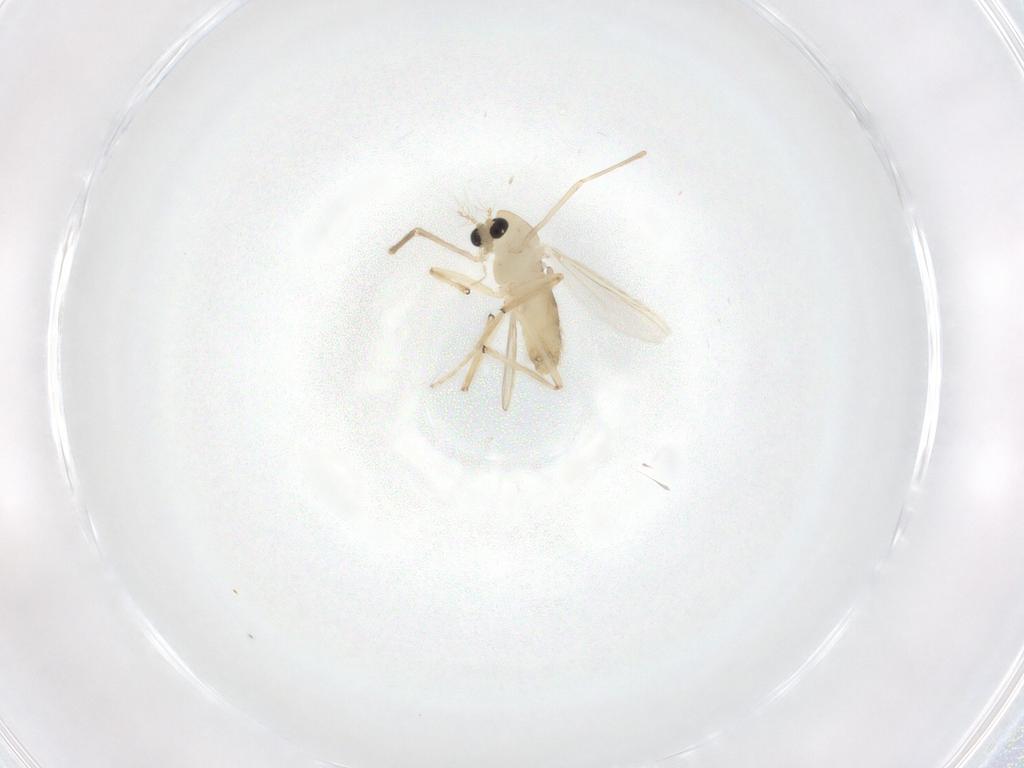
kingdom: Animalia
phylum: Arthropoda
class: Insecta
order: Diptera
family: Chironomidae
